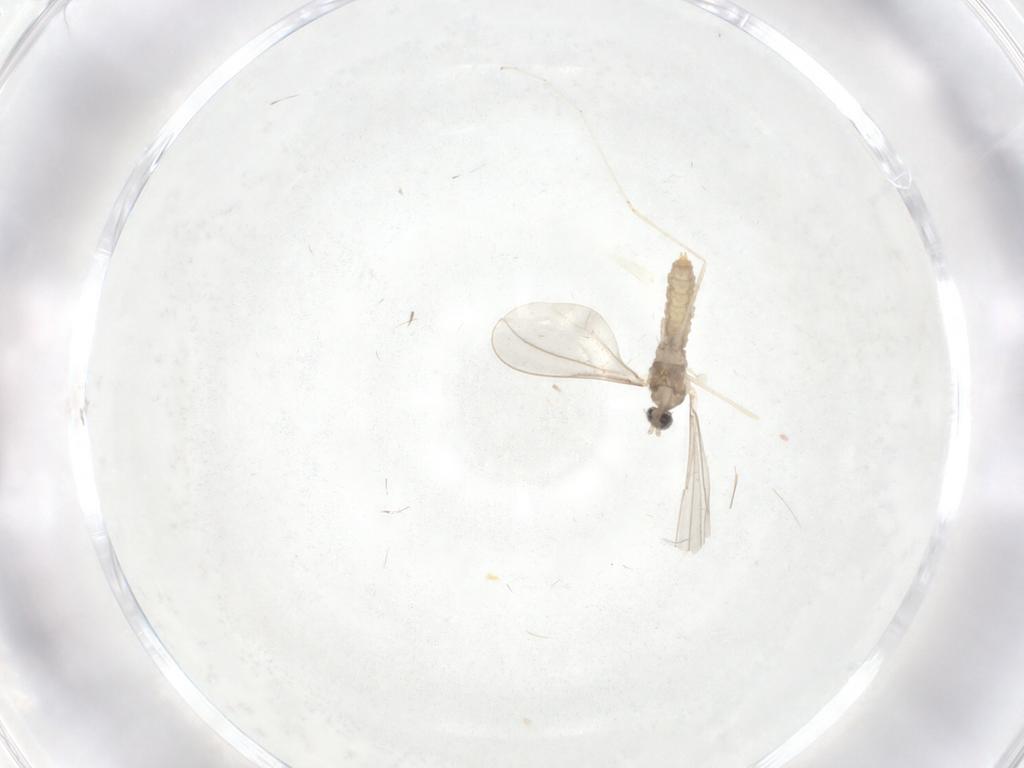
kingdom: Animalia
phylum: Arthropoda
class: Insecta
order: Diptera
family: Cecidomyiidae
